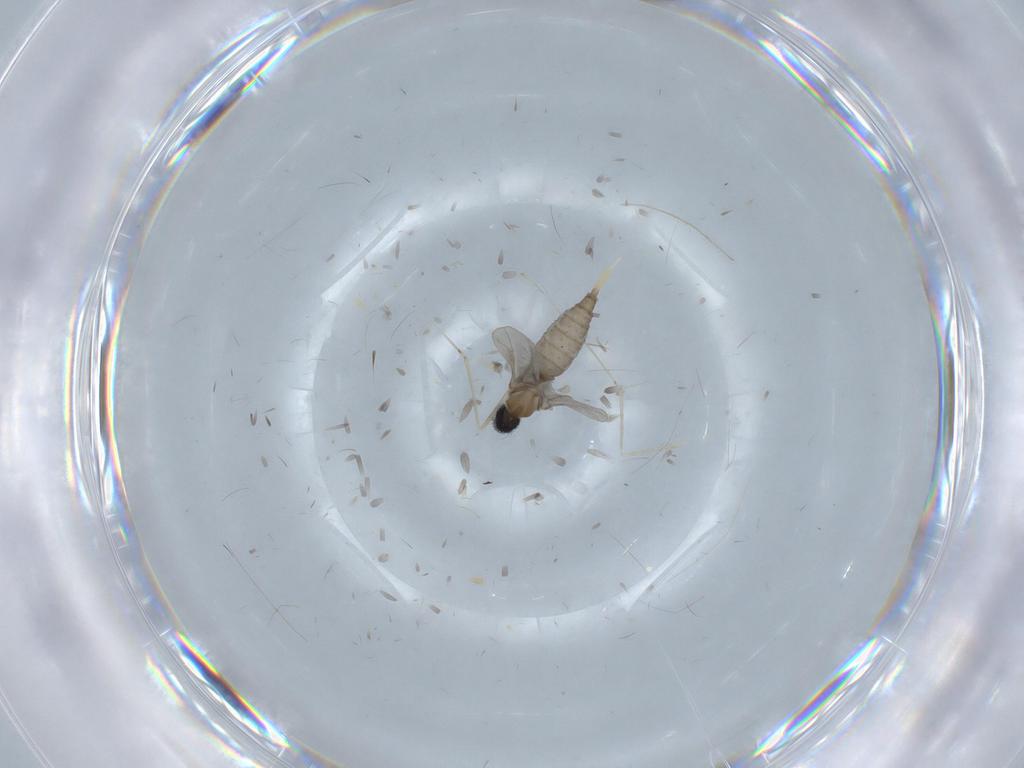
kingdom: Animalia
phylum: Arthropoda
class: Insecta
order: Diptera
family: Cecidomyiidae
